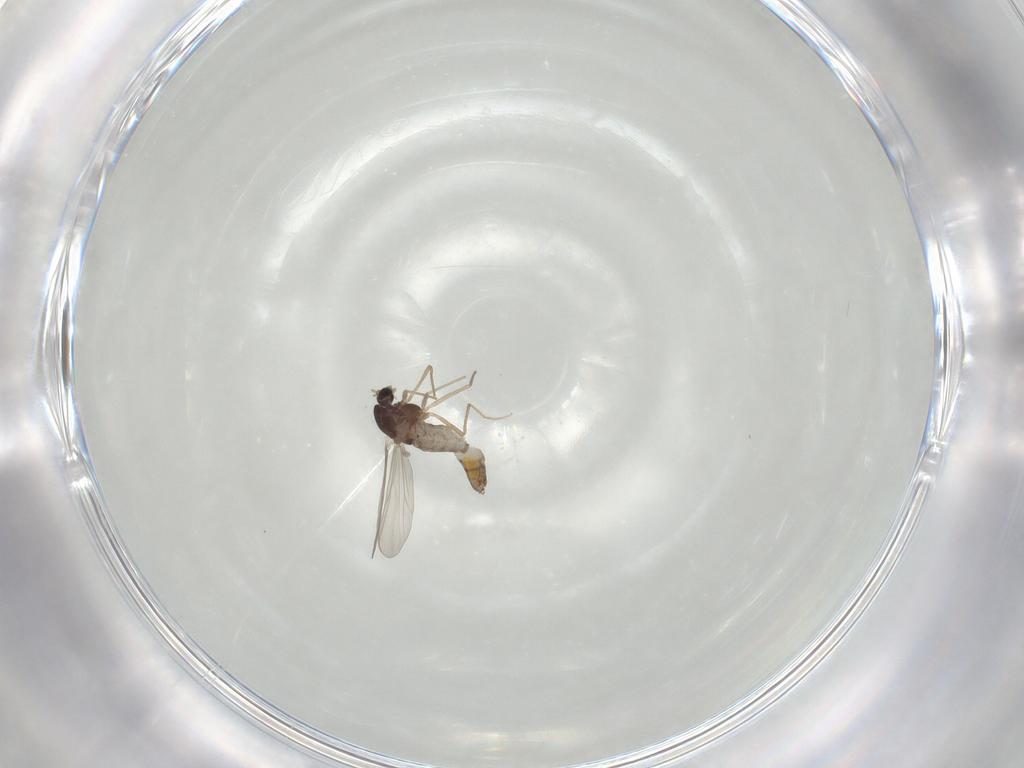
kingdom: Animalia
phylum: Arthropoda
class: Insecta
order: Diptera
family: Chironomidae
